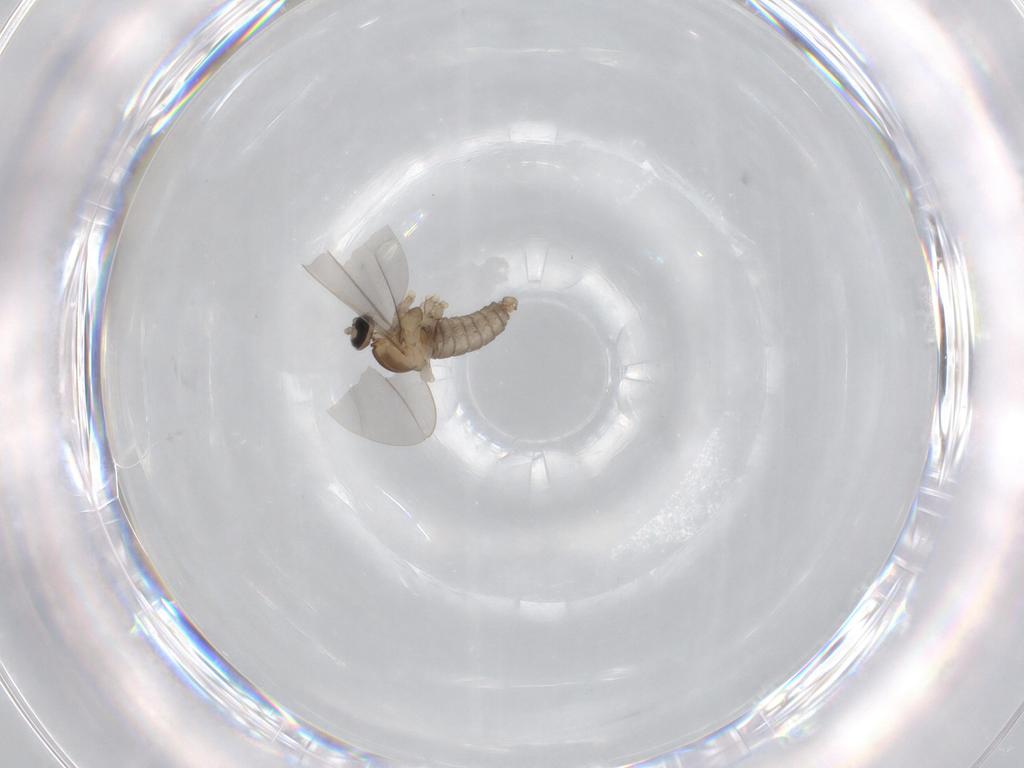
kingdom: Animalia
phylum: Arthropoda
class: Insecta
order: Diptera
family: Cecidomyiidae
